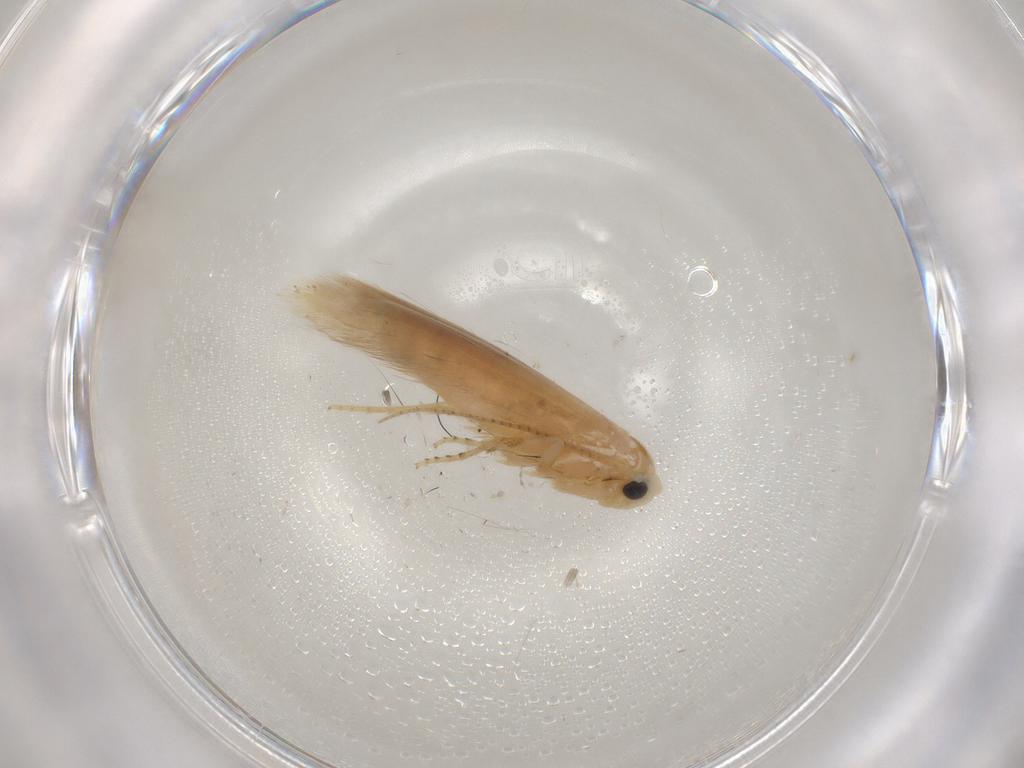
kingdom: Animalia
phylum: Arthropoda
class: Insecta
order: Lepidoptera
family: Bucculatricidae
